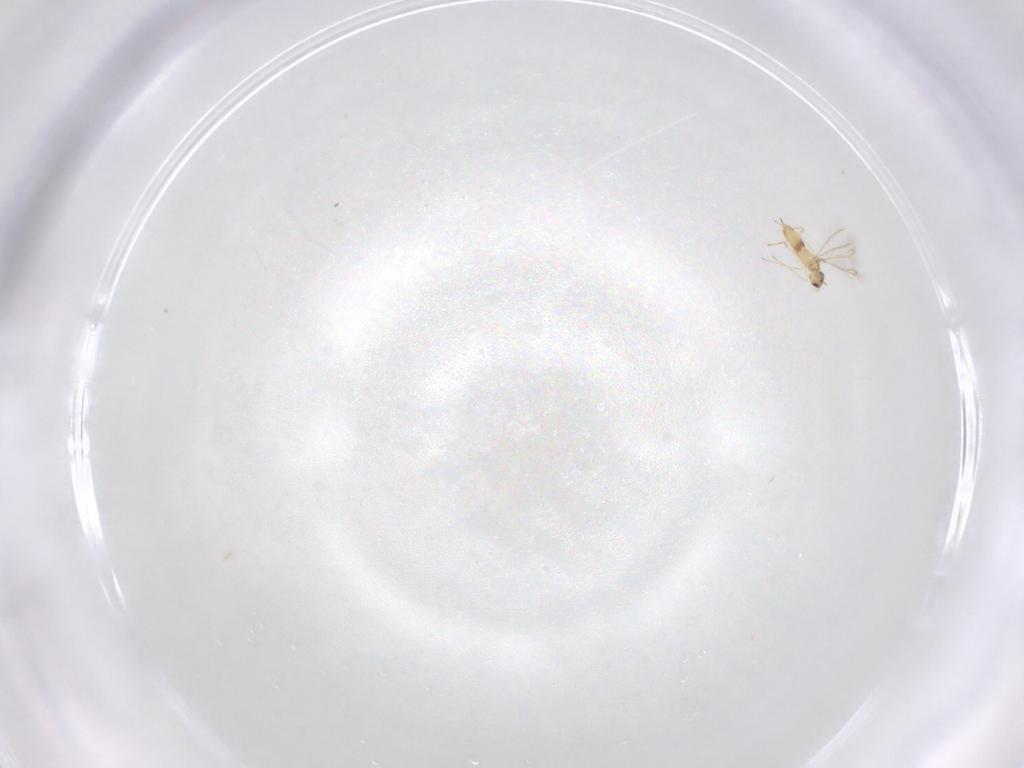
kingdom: Animalia
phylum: Arthropoda
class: Insecta
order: Hymenoptera
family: Mymaridae
